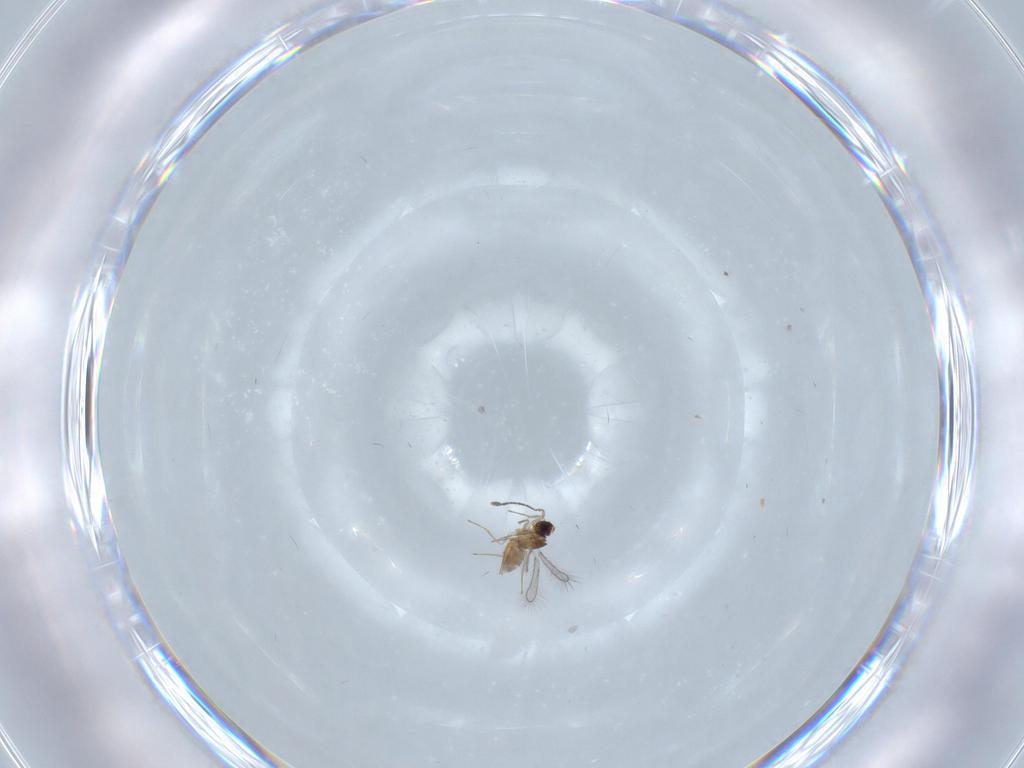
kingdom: Animalia
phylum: Arthropoda
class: Insecta
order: Hymenoptera
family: Mymaridae
